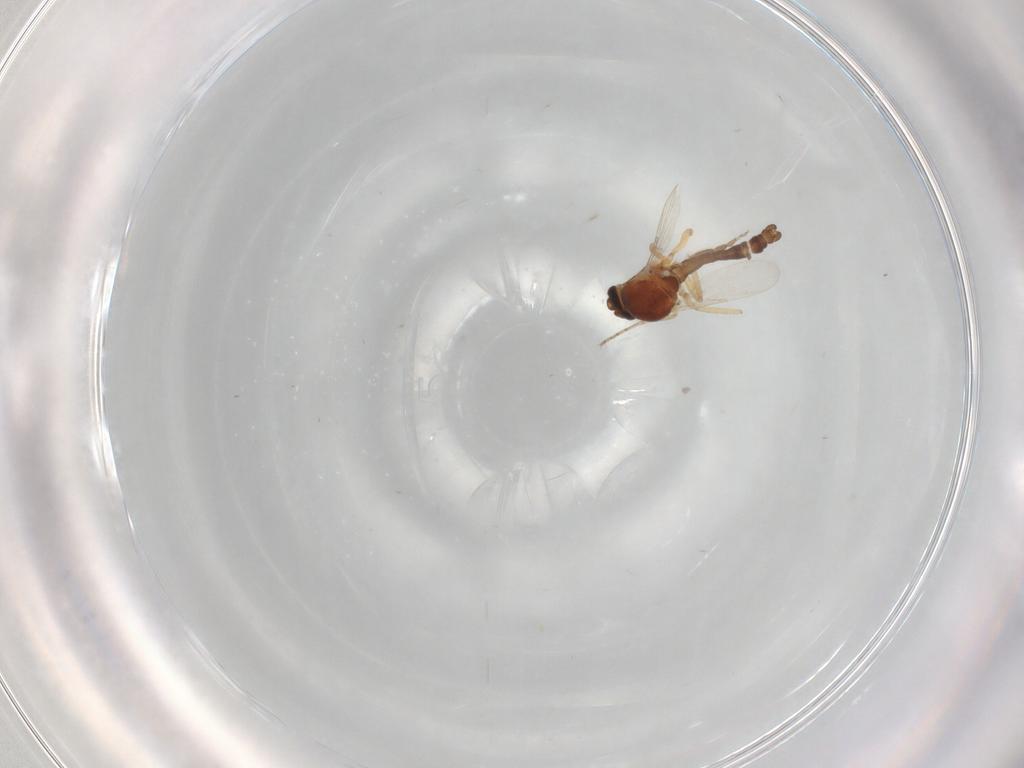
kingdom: Animalia
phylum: Arthropoda
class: Insecta
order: Diptera
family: Ceratopogonidae
